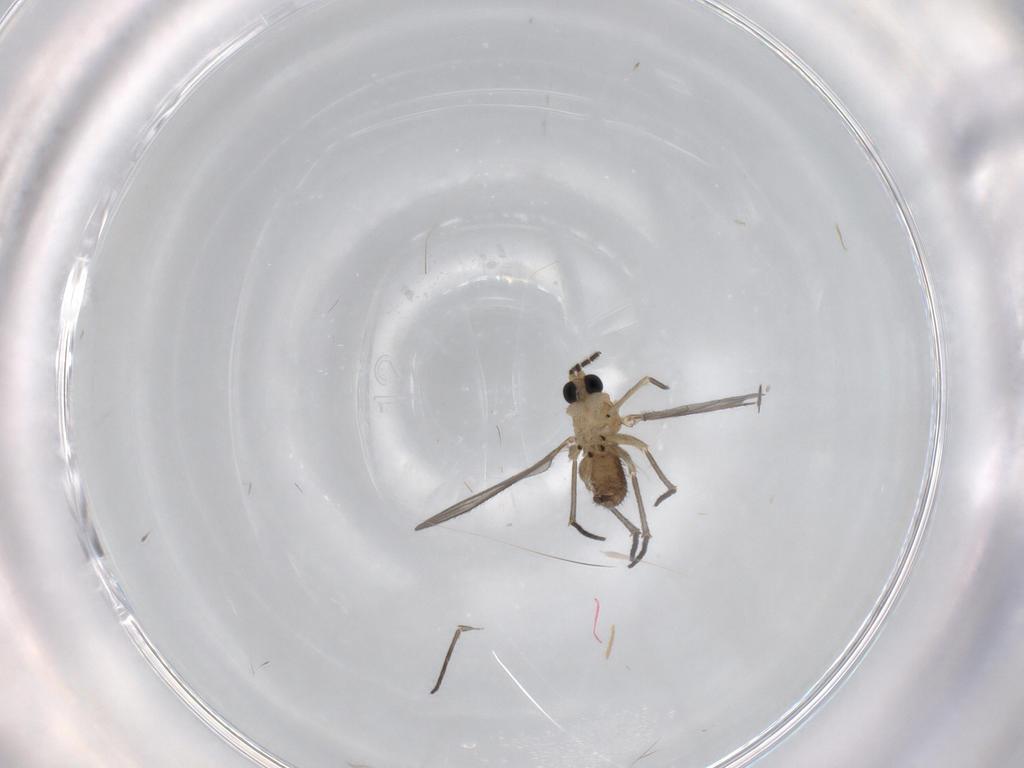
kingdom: Animalia
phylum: Arthropoda
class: Insecta
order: Diptera
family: Sciaridae
